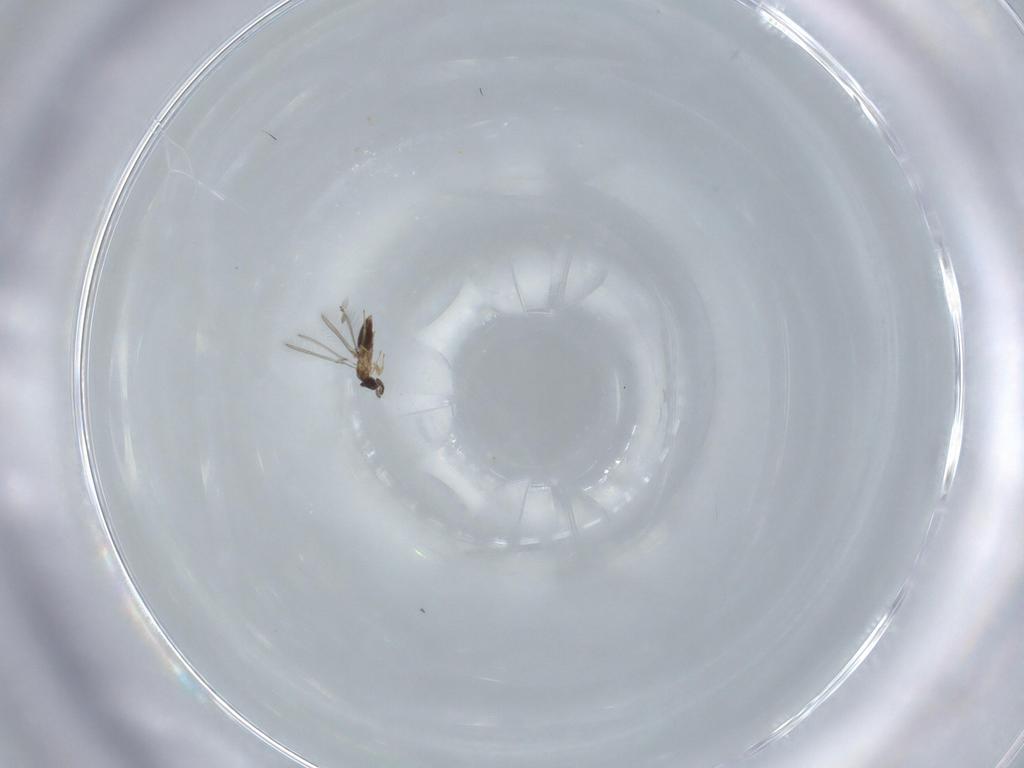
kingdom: Animalia
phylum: Arthropoda
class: Insecta
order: Hymenoptera
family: Mymaridae
